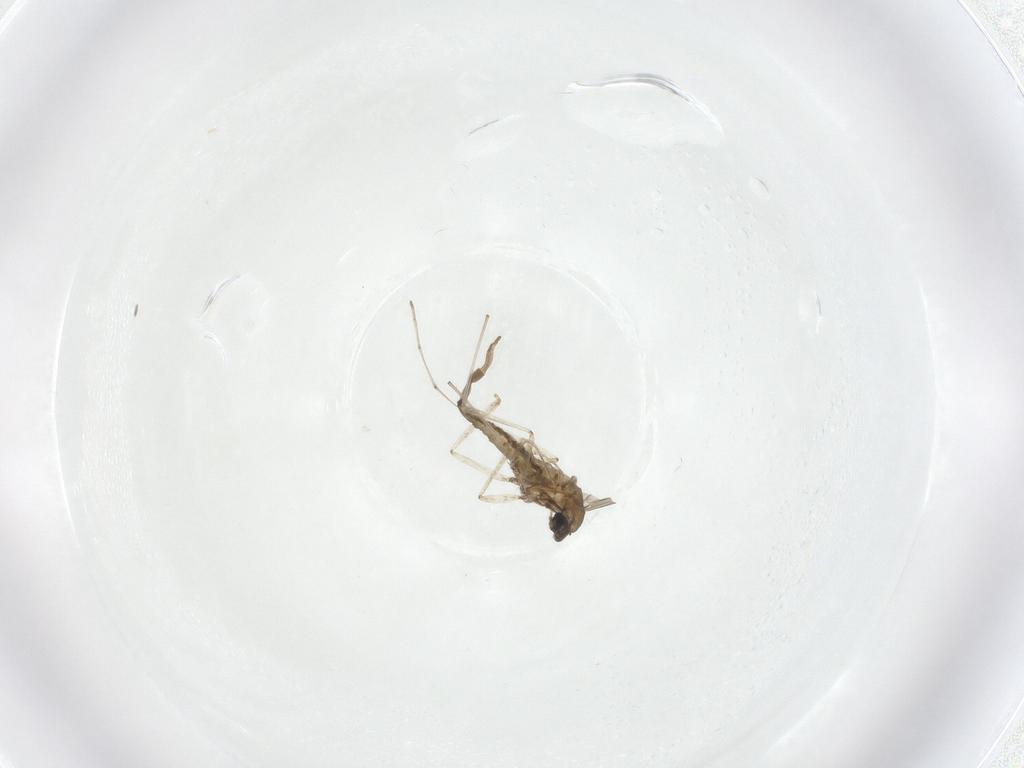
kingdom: Animalia
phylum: Arthropoda
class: Insecta
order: Diptera
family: Cecidomyiidae
